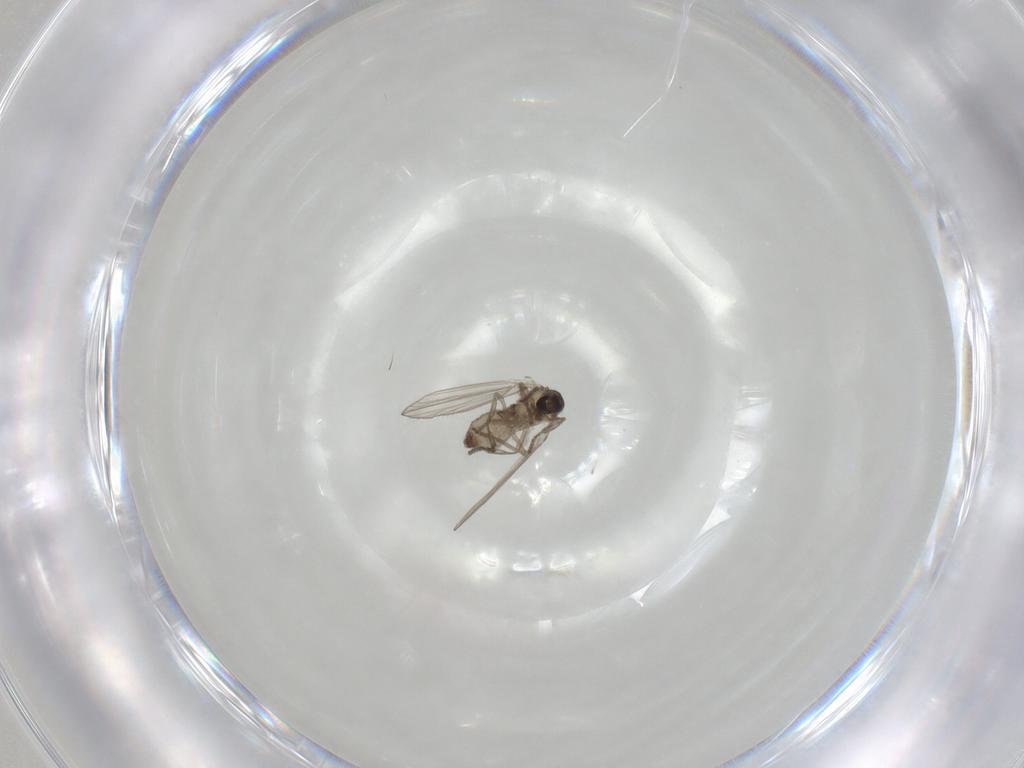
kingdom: Animalia
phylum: Arthropoda
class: Insecta
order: Diptera
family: Psychodidae
